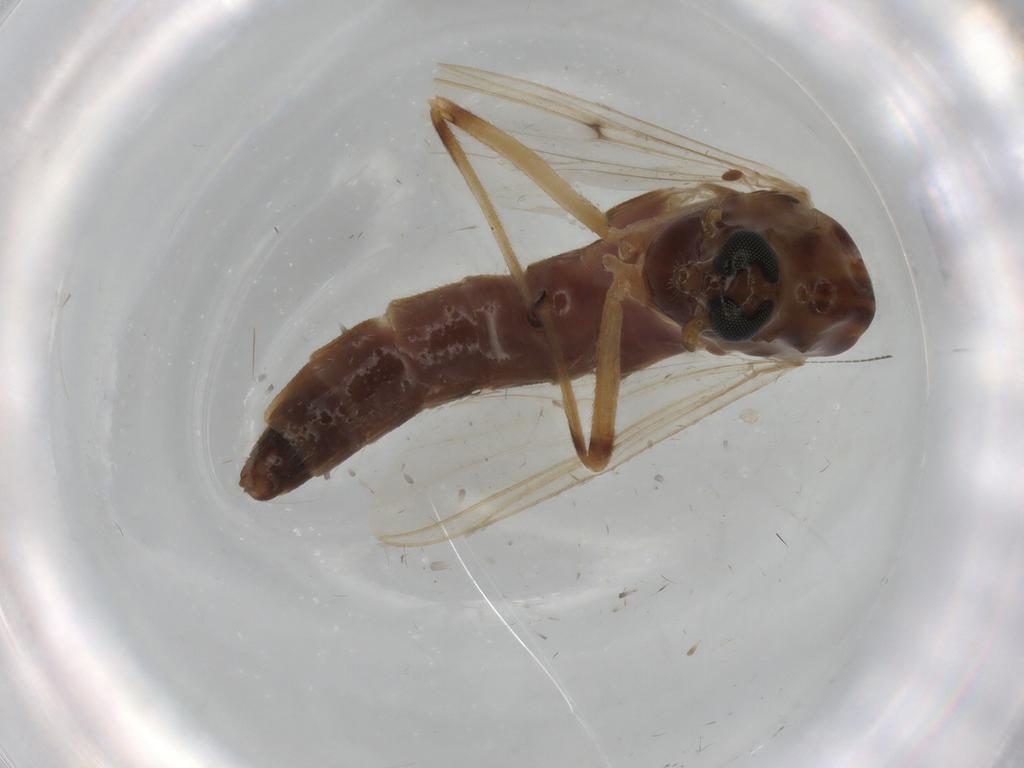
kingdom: Animalia
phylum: Arthropoda
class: Insecta
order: Diptera
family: Chironomidae
